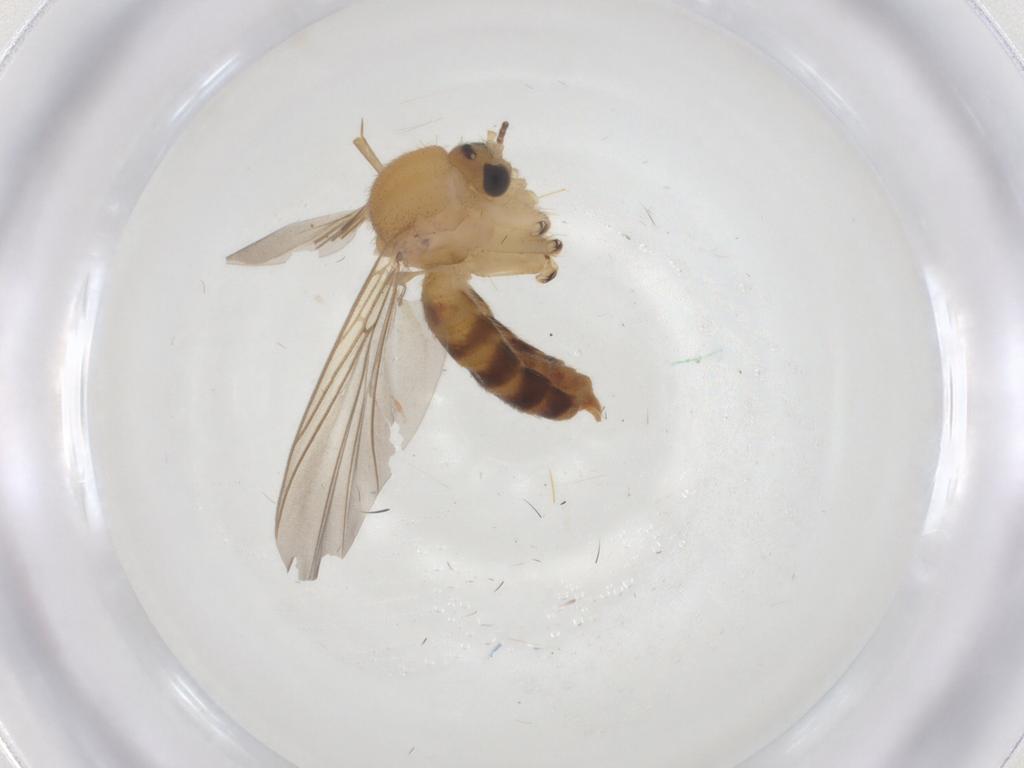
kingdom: Animalia
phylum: Arthropoda
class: Insecta
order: Diptera
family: Mycetophilidae
